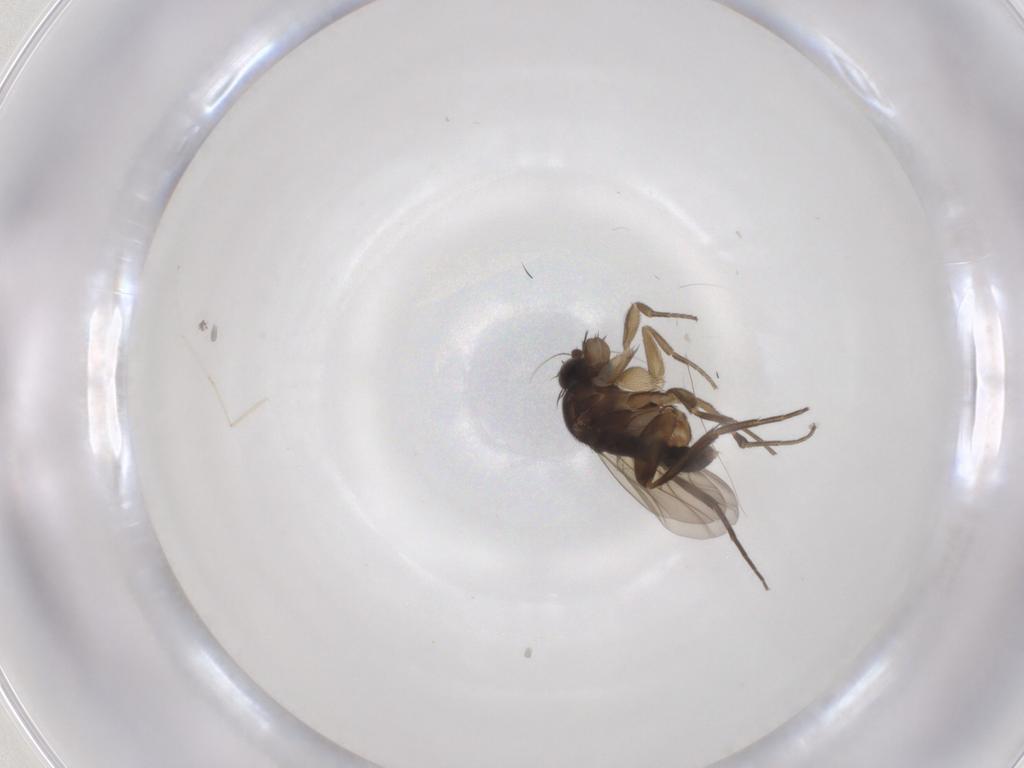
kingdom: Animalia
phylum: Arthropoda
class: Insecta
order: Diptera
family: Phoridae
